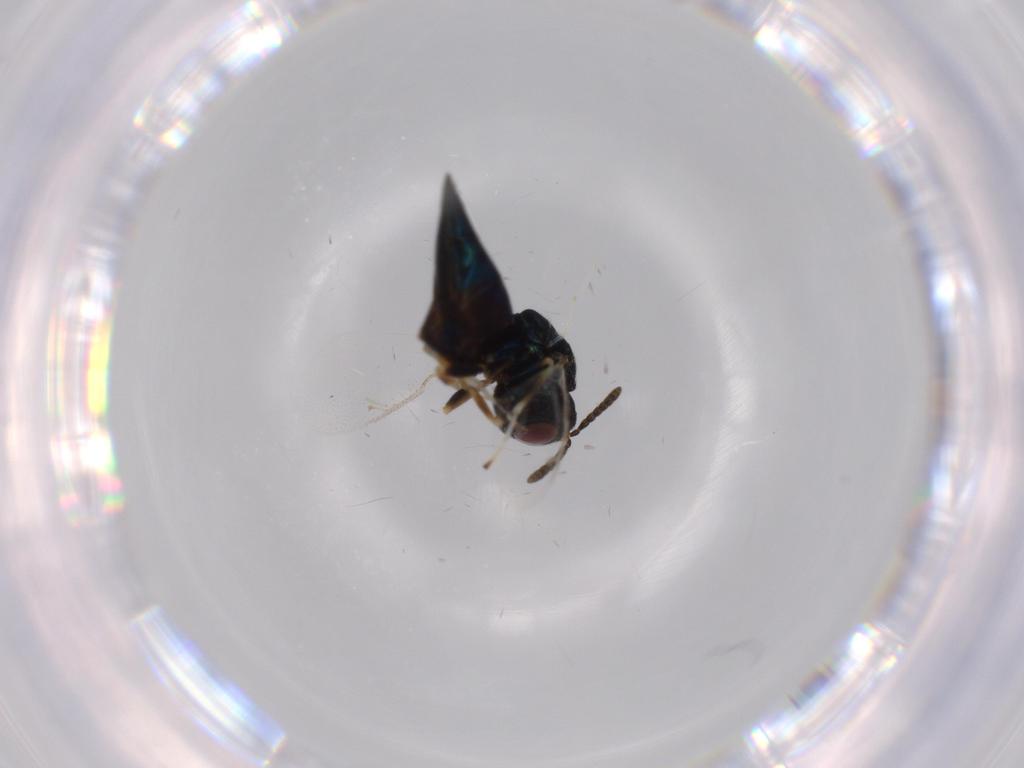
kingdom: Animalia
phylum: Arthropoda
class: Insecta
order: Hymenoptera
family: Pteromalidae
